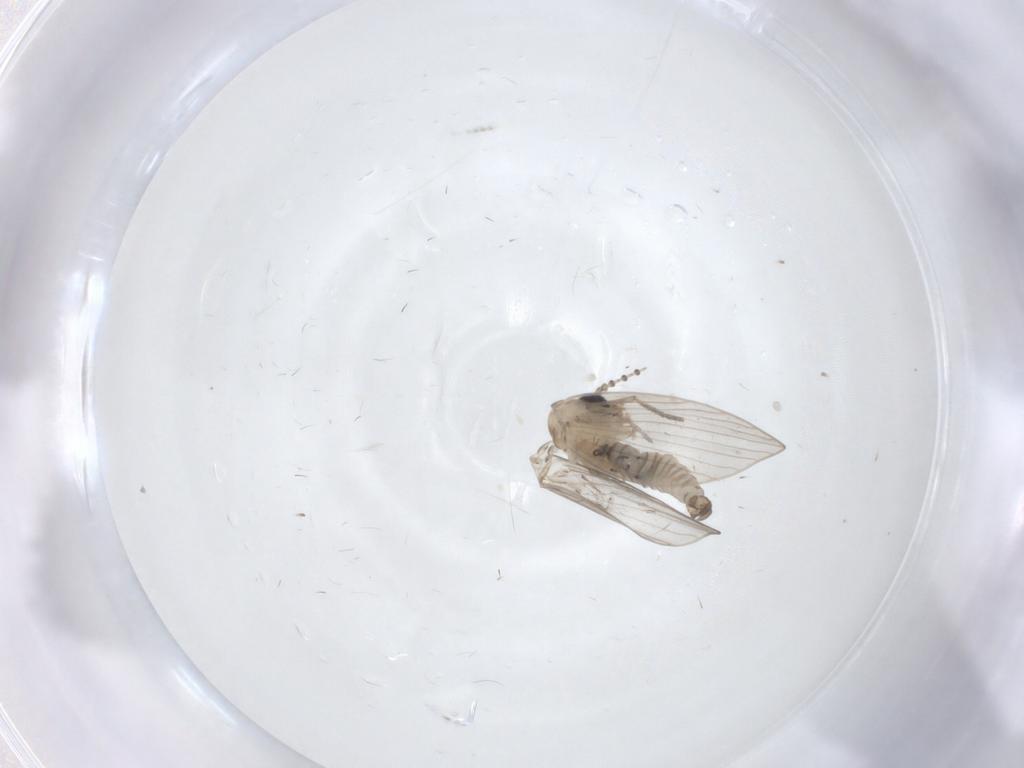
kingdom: Animalia
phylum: Arthropoda
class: Insecta
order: Diptera
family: Psychodidae
